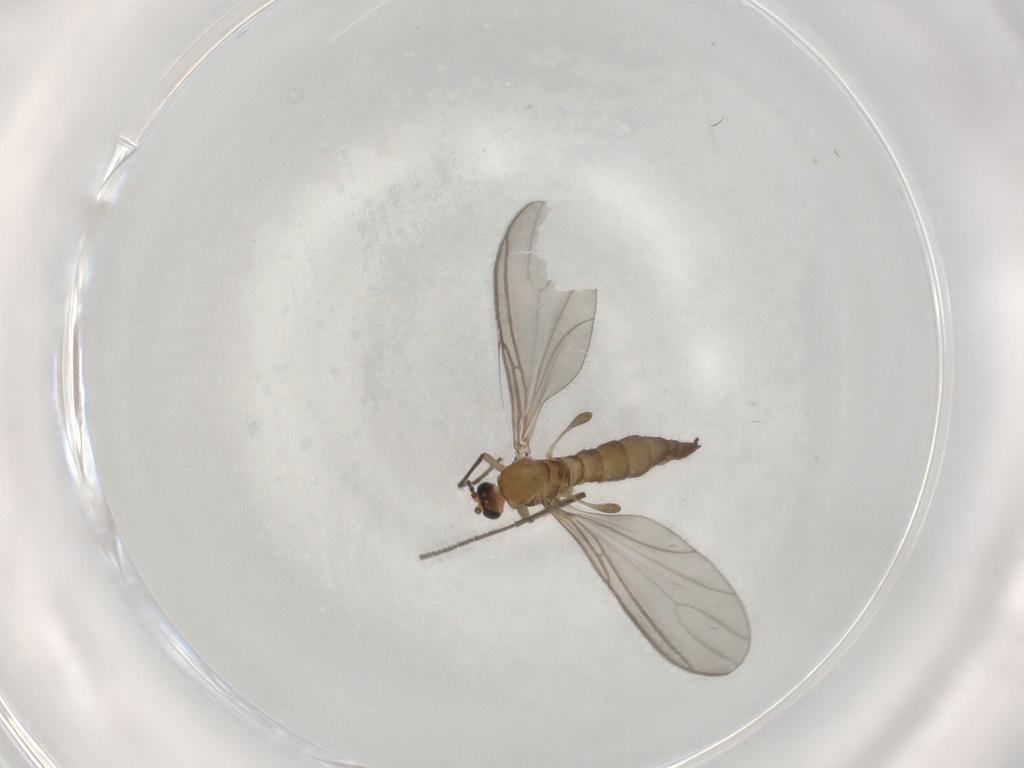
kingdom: Animalia
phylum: Arthropoda
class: Insecta
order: Diptera
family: Sciaridae
